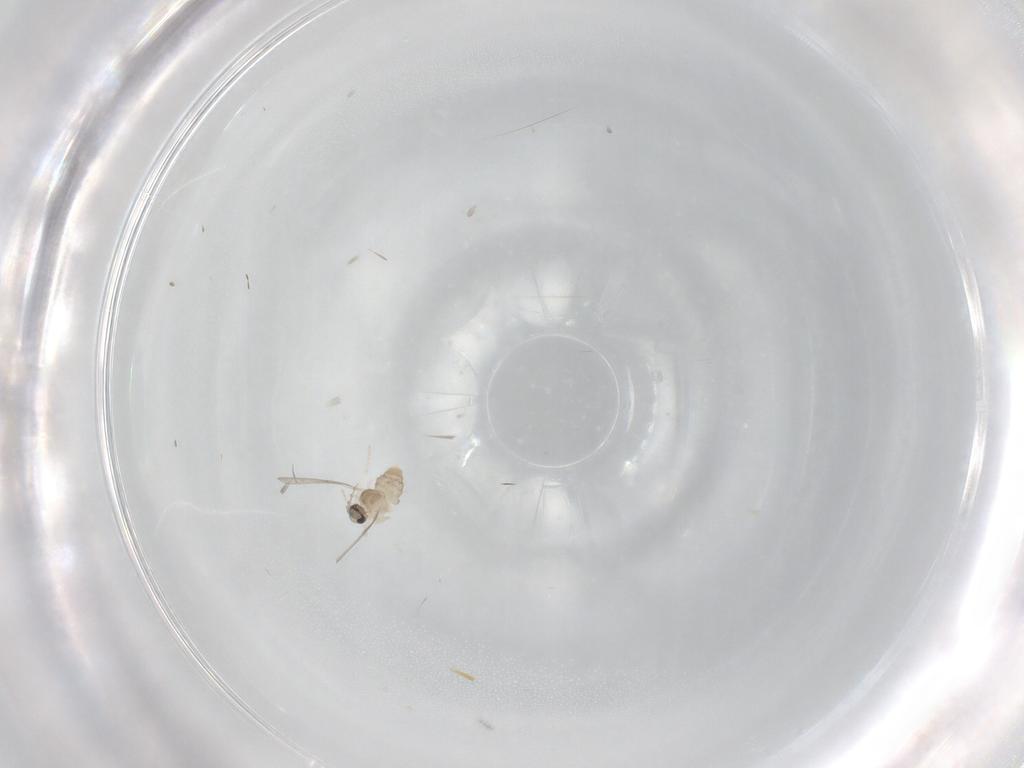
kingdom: Animalia
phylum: Arthropoda
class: Insecta
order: Diptera
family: Cecidomyiidae
